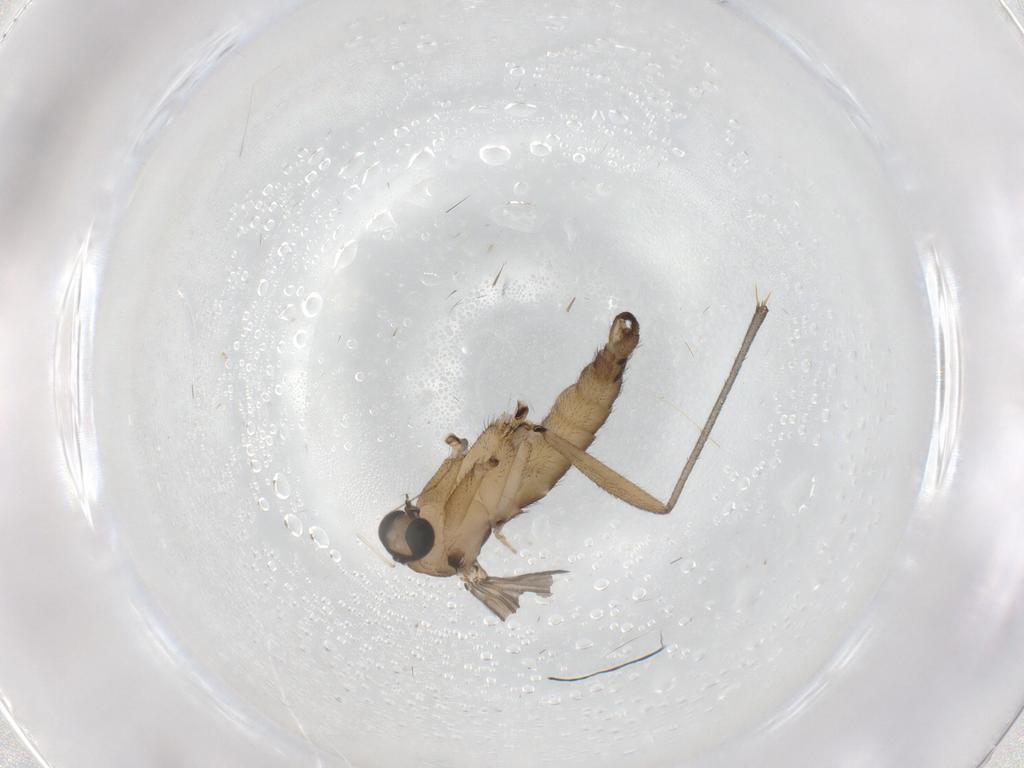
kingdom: Animalia
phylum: Arthropoda
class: Insecta
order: Diptera
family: Sciaridae
